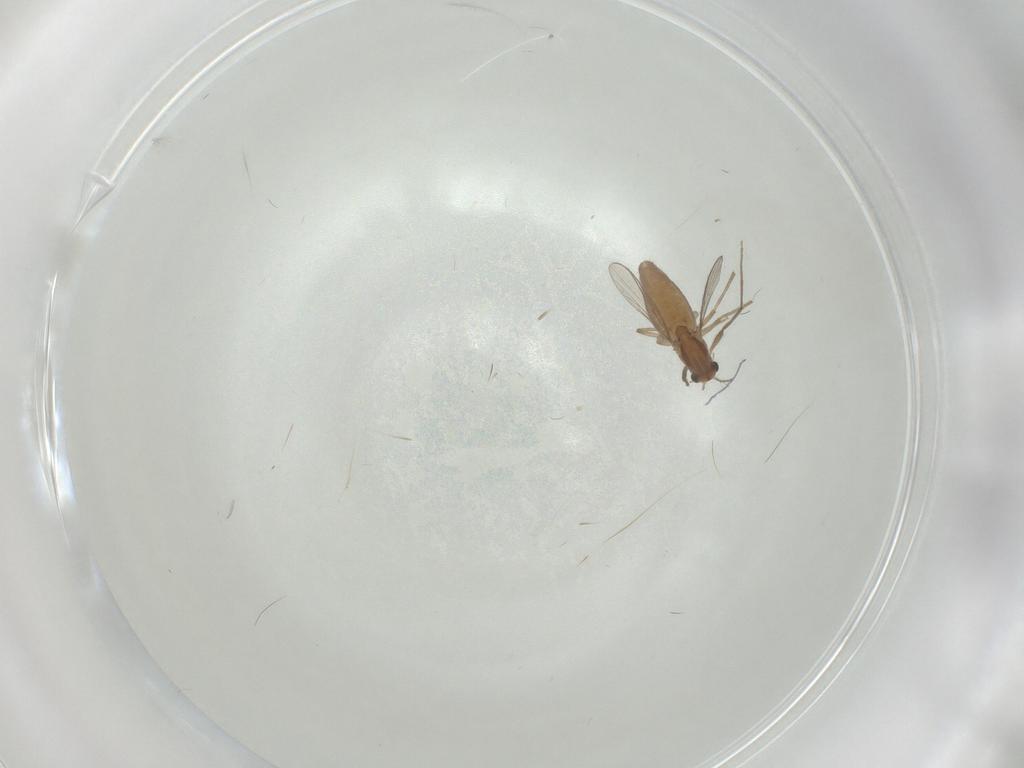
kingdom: Animalia
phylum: Arthropoda
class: Insecta
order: Diptera
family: Chironomidae
